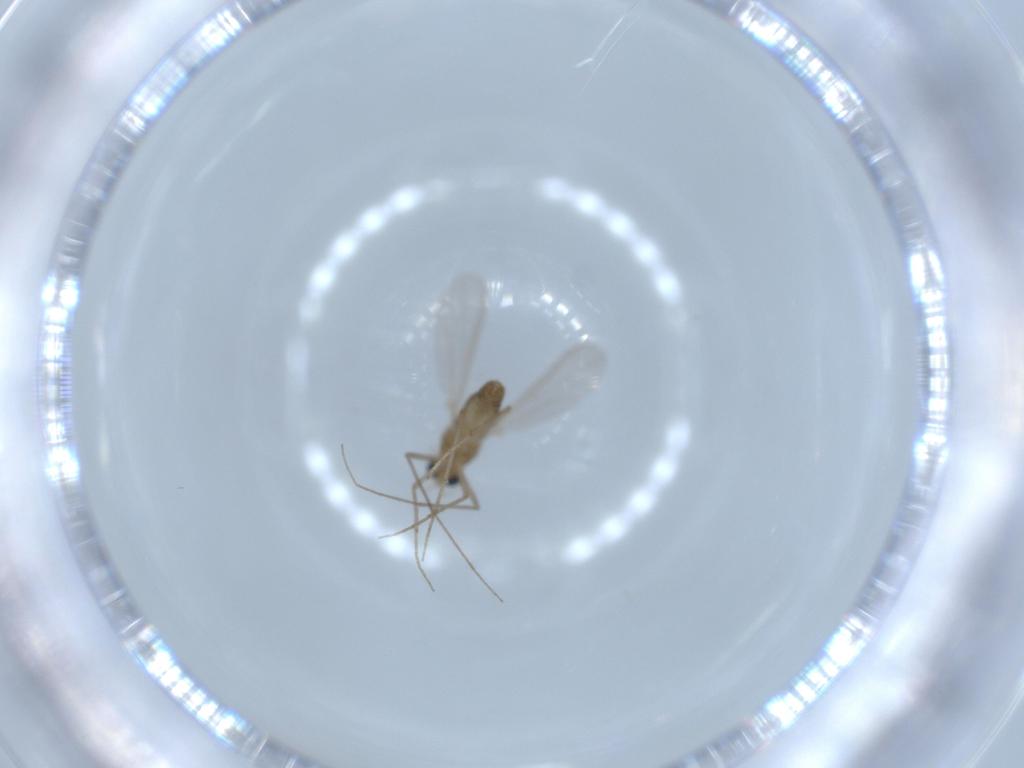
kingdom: Animalia
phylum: Arthropoda
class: Insecta
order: Diptera
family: Chironomidae
